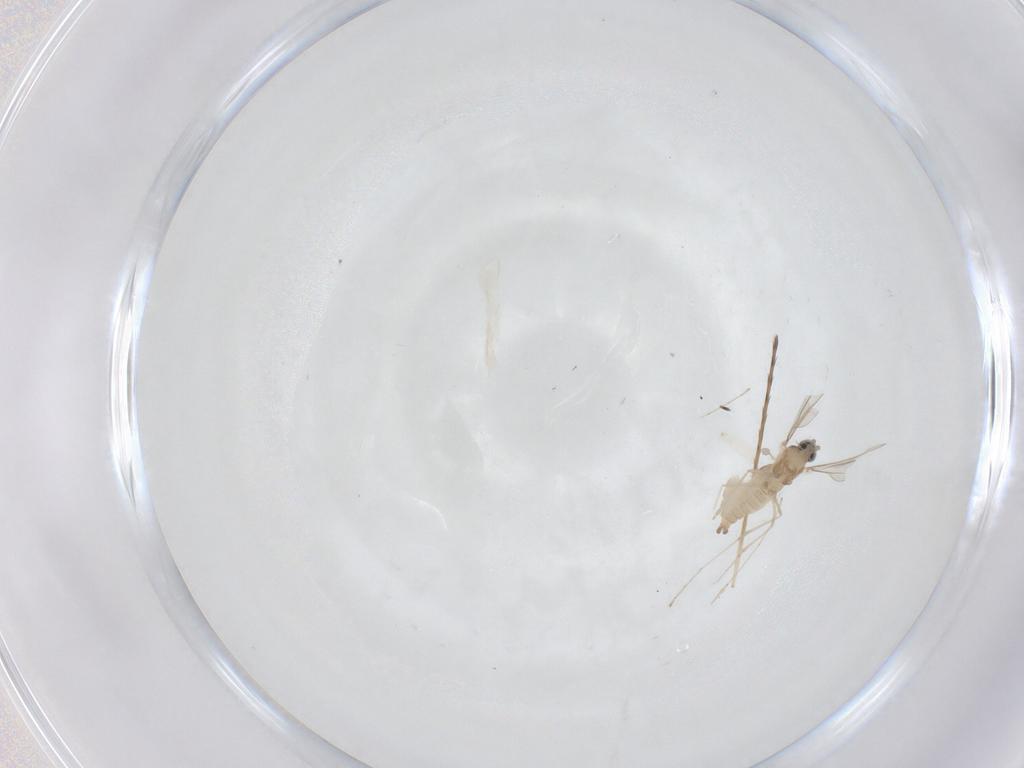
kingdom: Animalia
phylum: Arthropoda
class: Insecta
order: Diptera
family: Cecidomyiidae
